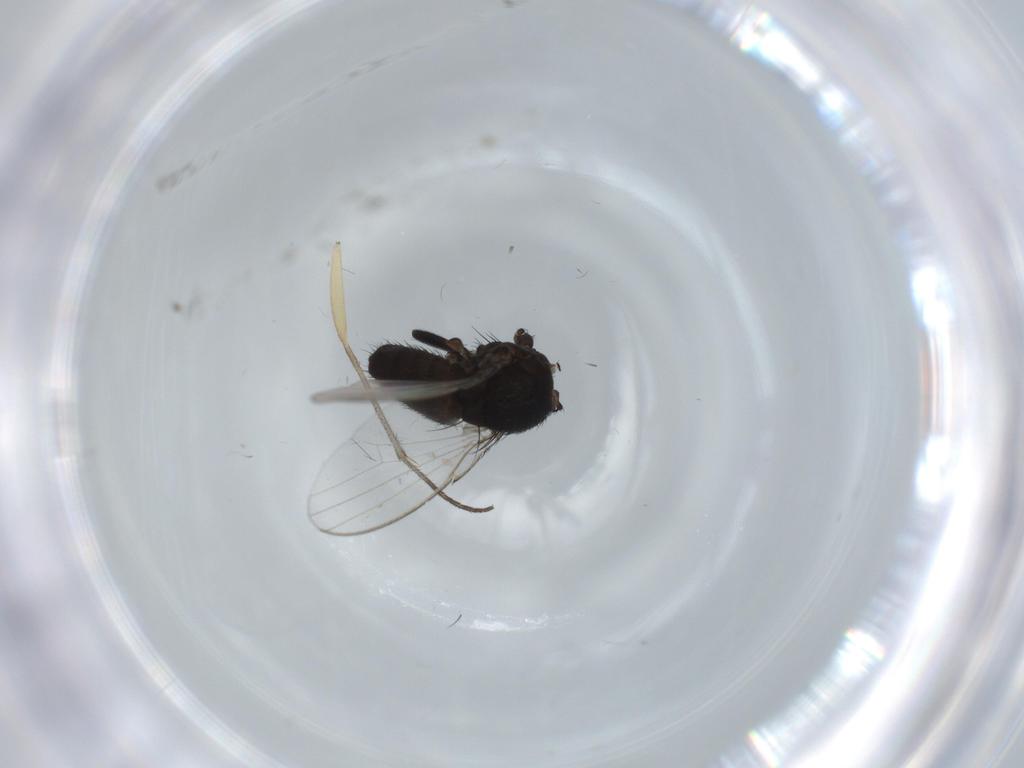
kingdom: Animalia
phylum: Arthropoda
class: Insecta
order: Diptera
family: Milichiidae
